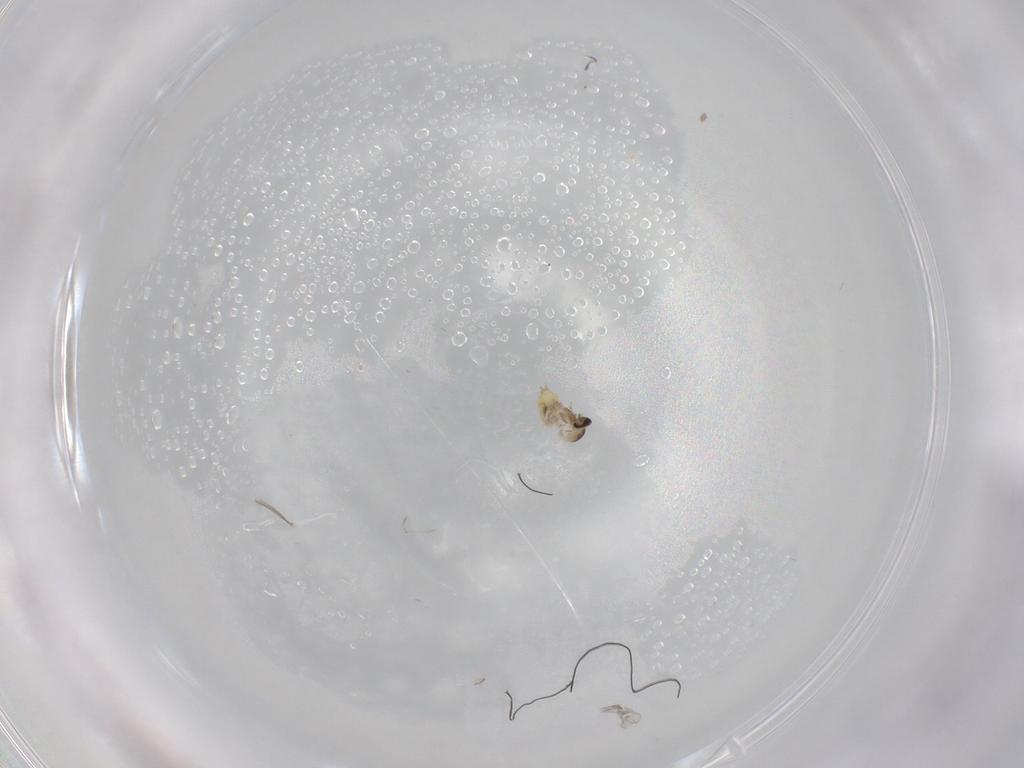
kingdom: Animalia
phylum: Arthropoda
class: Insecta
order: Diptera
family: Cecidomyiidae
